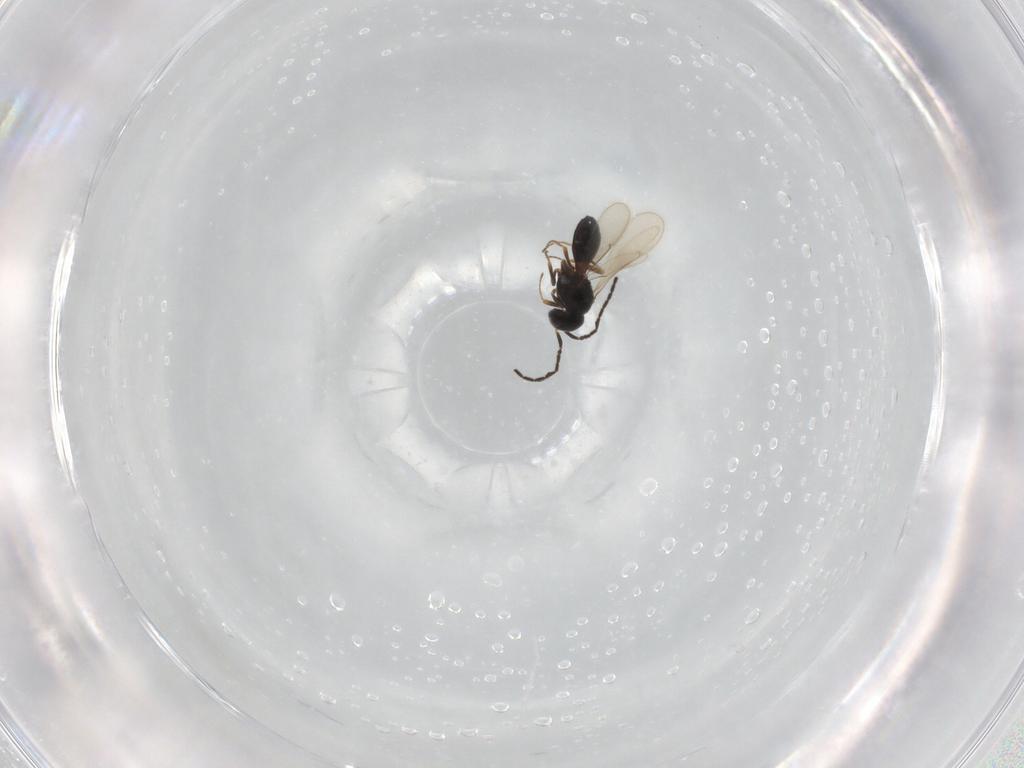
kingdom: Animalia
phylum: Arthropoda
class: Insecta
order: Hymenoptera
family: Scelionidae
